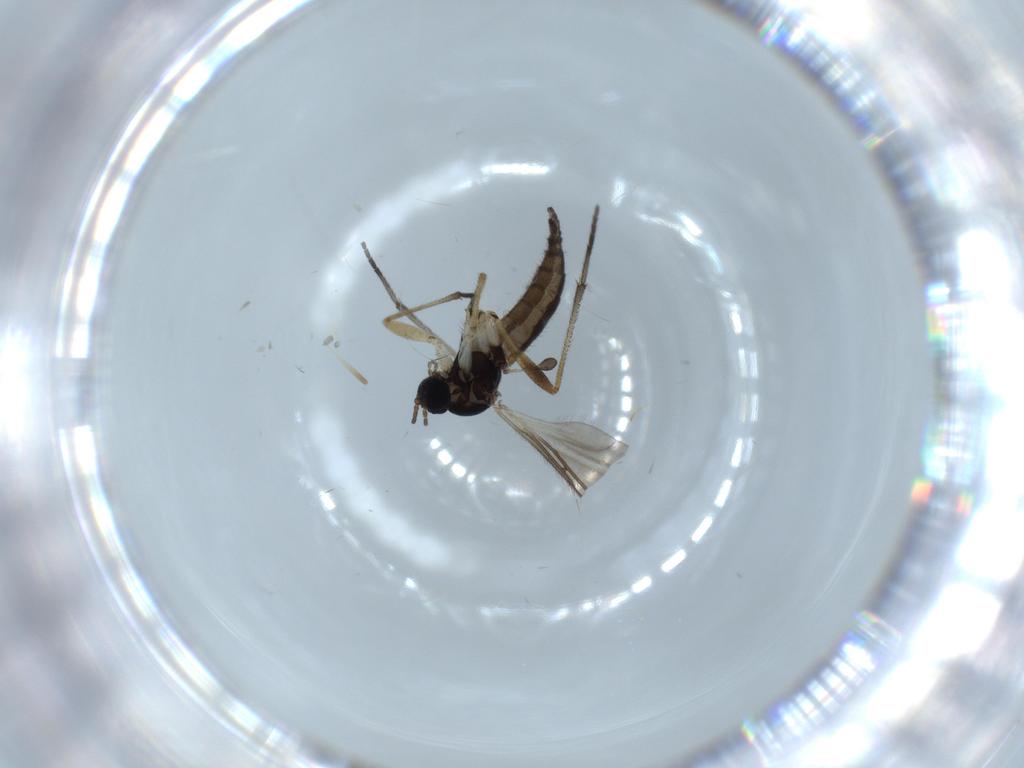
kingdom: Animalia
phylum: Arthropoda
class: Insecta
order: Diptera
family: Sciaridae
